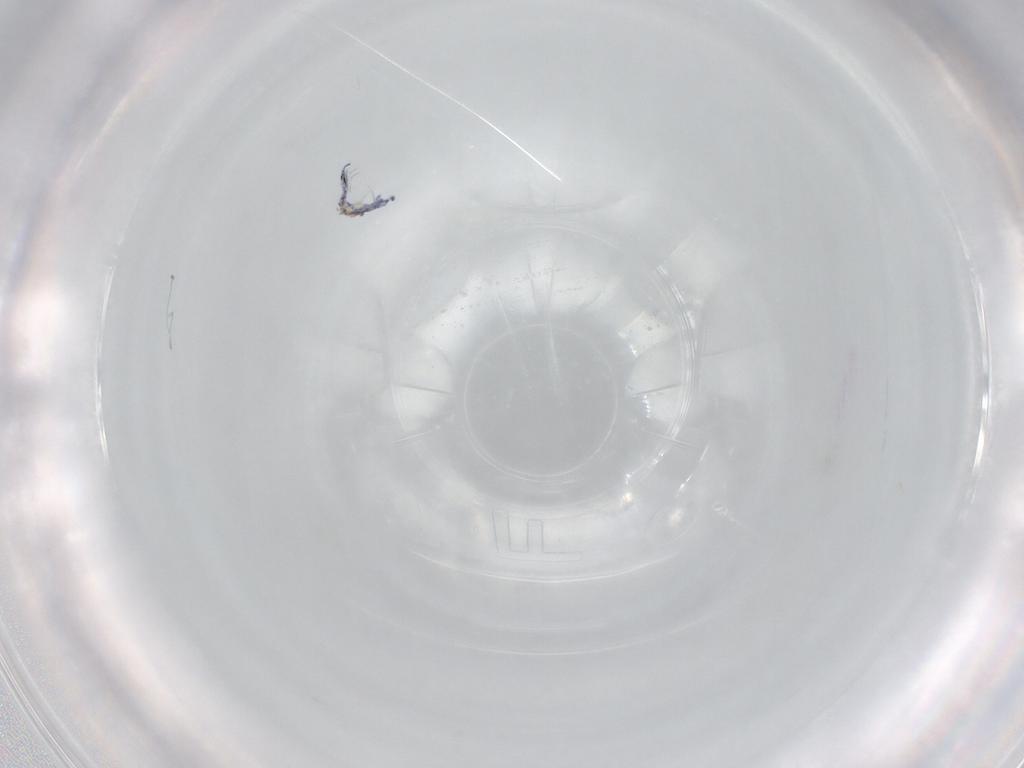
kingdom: Animalia
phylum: Arthropoda
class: Collembola
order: Entomobryomorpha
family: Entomobryidae
